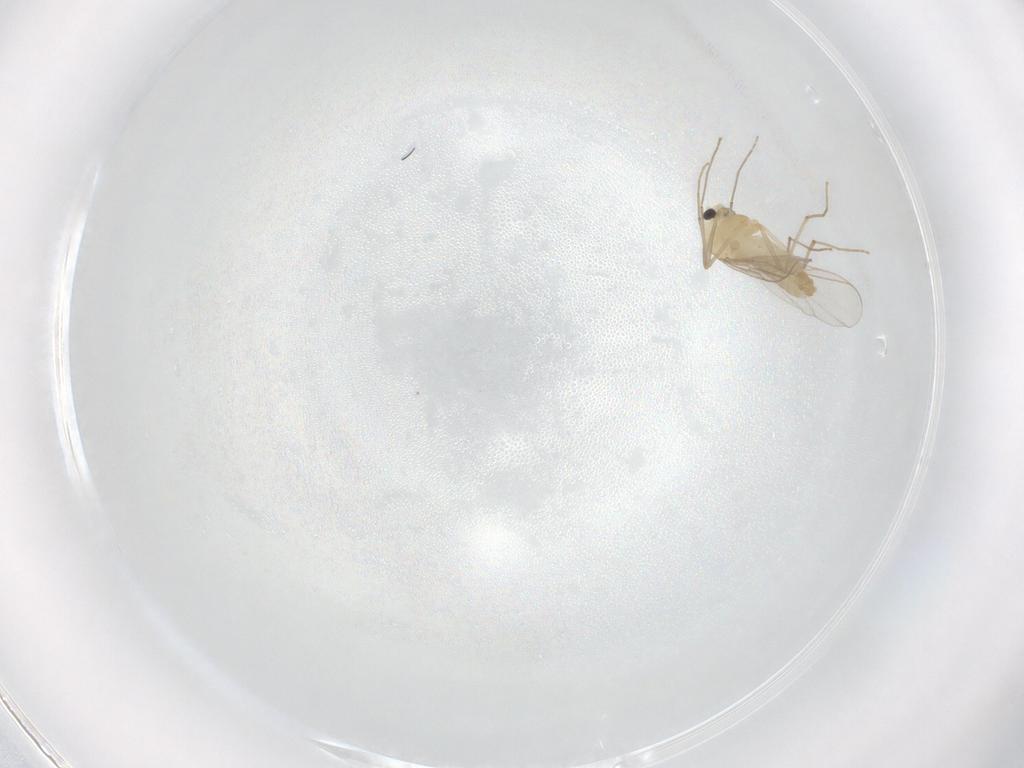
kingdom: Animalia
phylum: Arthropoda
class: Insecta
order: Diptera
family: Chironomidae
